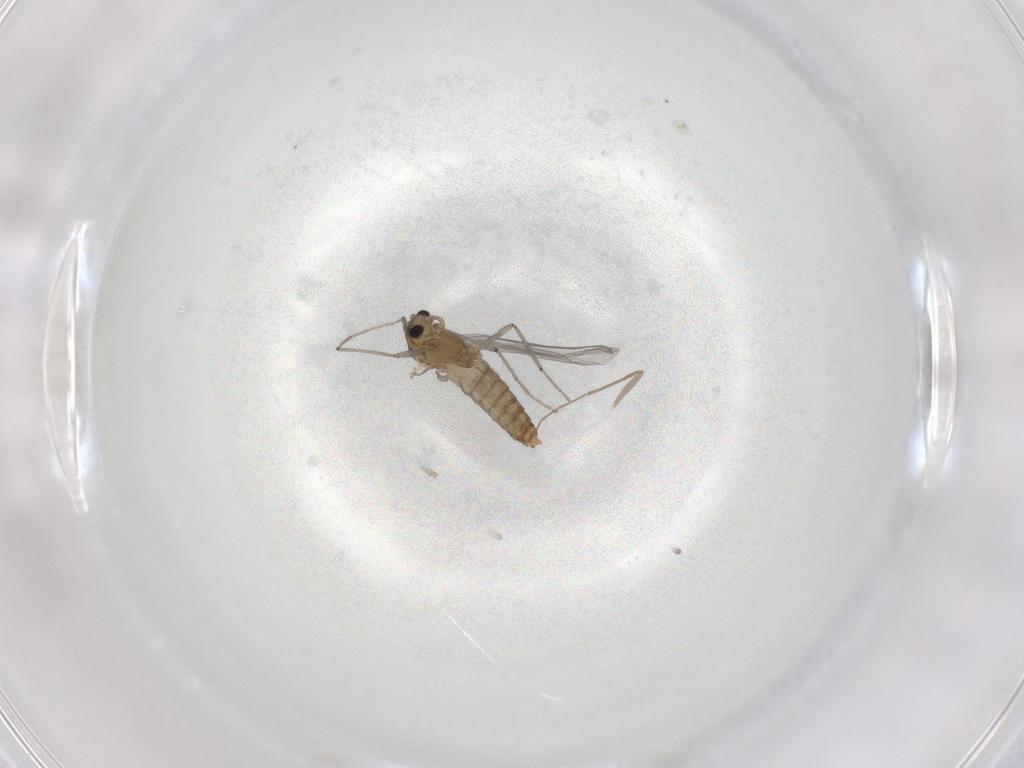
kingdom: Animalia
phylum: Arthropoda
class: Insecta
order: Diptera
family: Chironomidae
